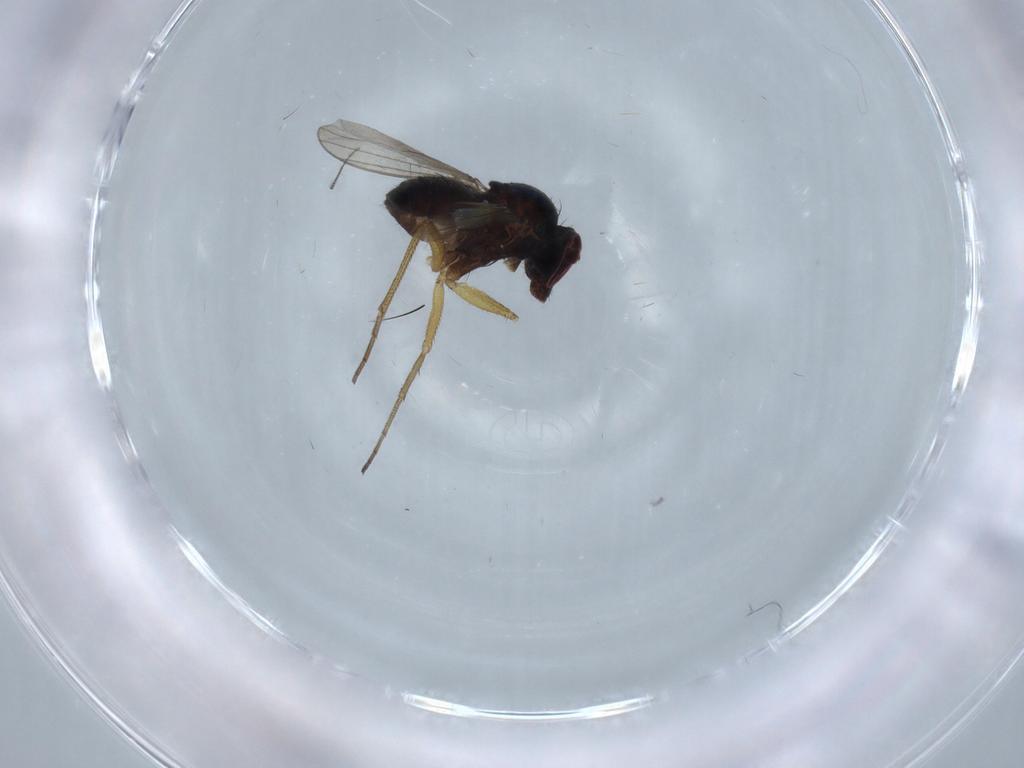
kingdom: Animalia
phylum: Arthropoda
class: Insecta
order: Diptera
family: Dolichopodidae
